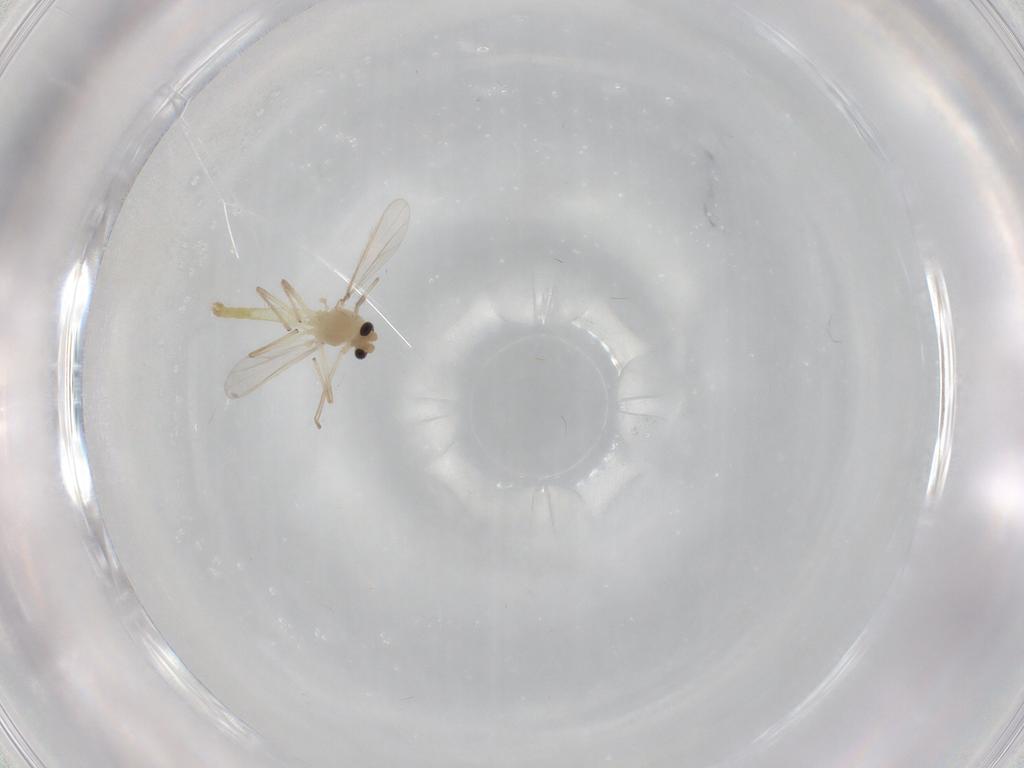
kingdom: Animalia
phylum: Arthropoda
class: Insecta
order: Diptera
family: Chironomidae
